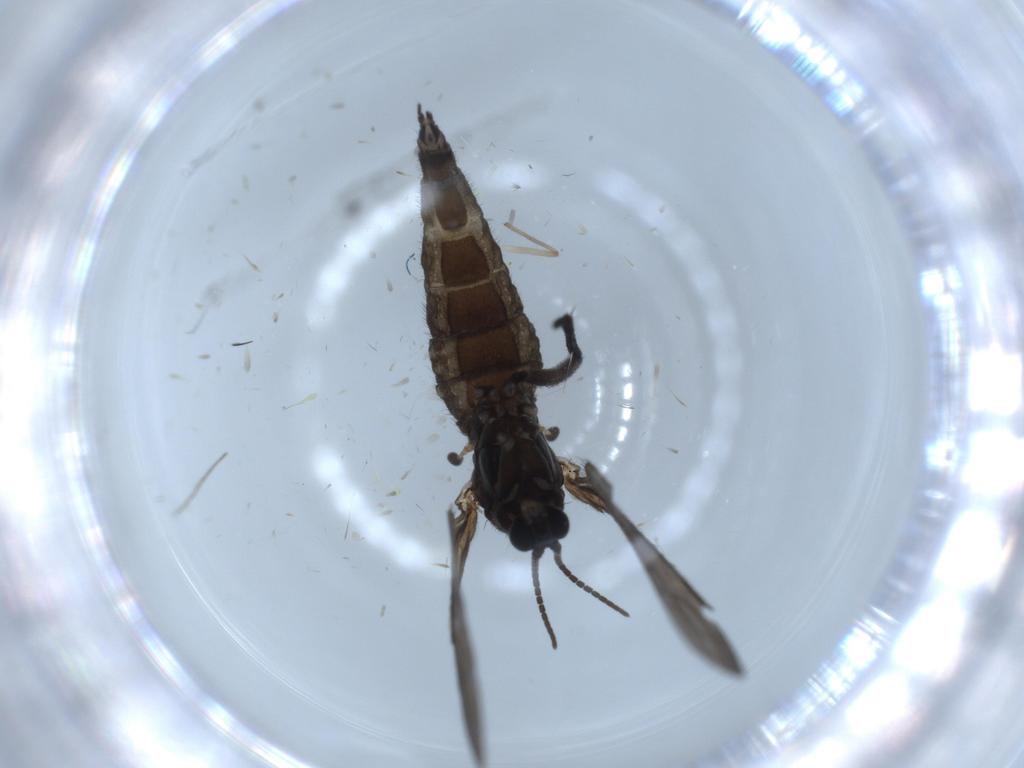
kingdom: Animalia
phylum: Arthropoda
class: Insecta
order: Diptera
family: Sciaridae
